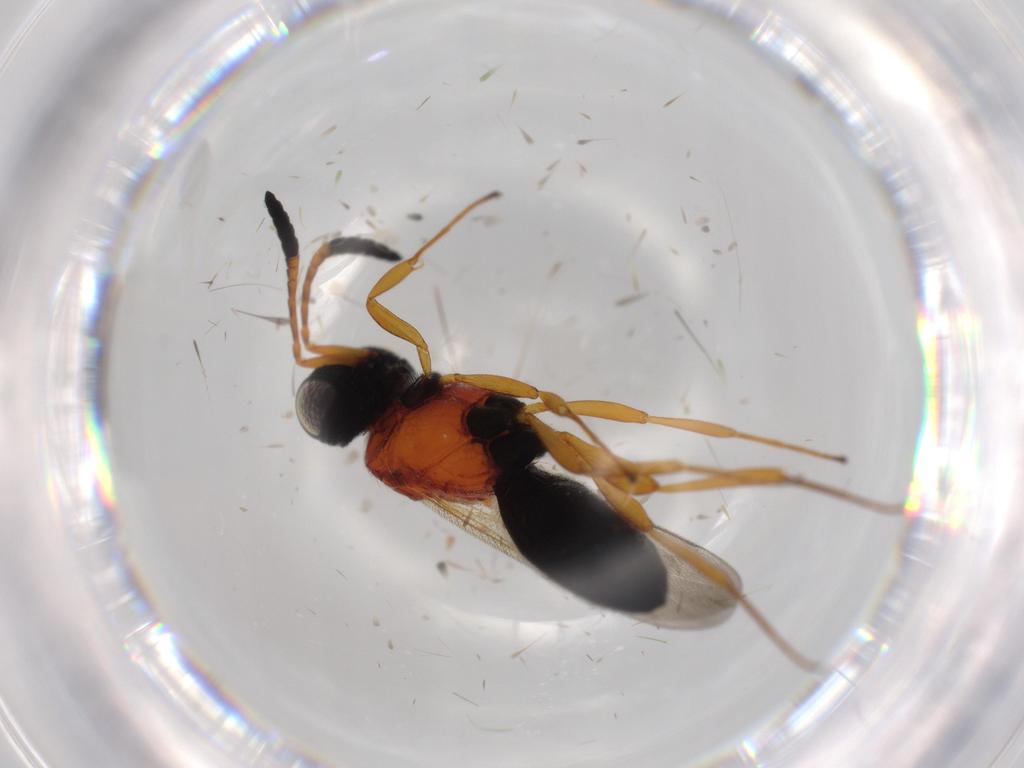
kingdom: Animalia
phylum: Arthropoda
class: Insecta
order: Hymenoptera
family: Scelionidae
